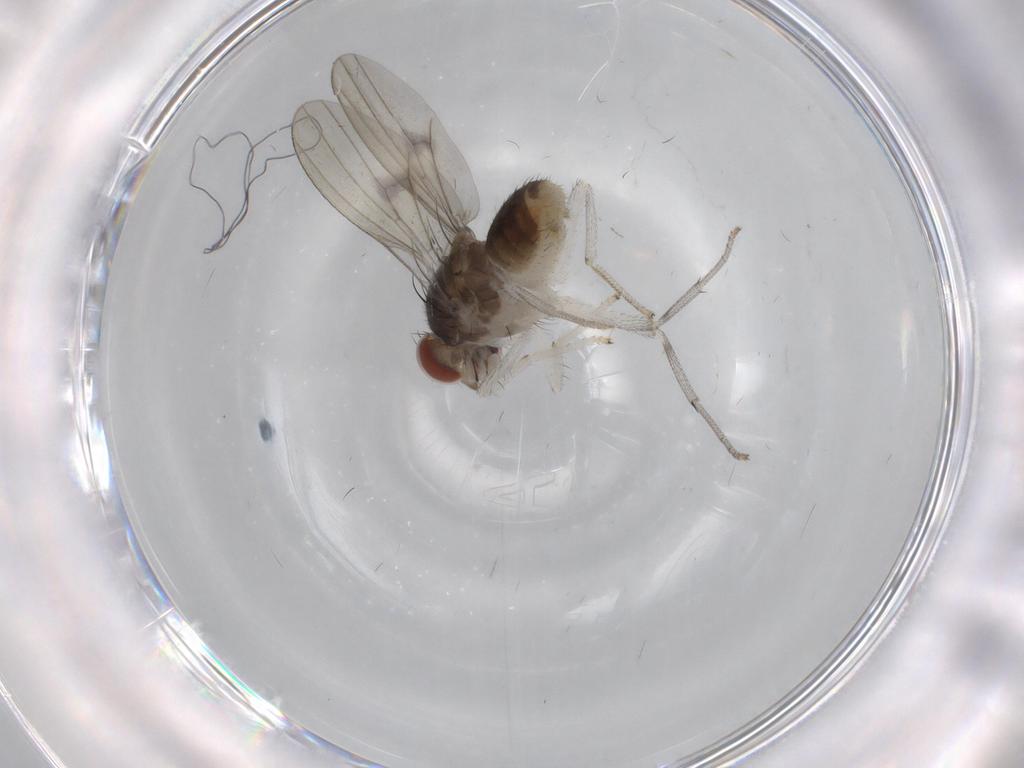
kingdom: Animalia
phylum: Arthropoda
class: Insecta
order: Diptera
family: Lauxaniidae
